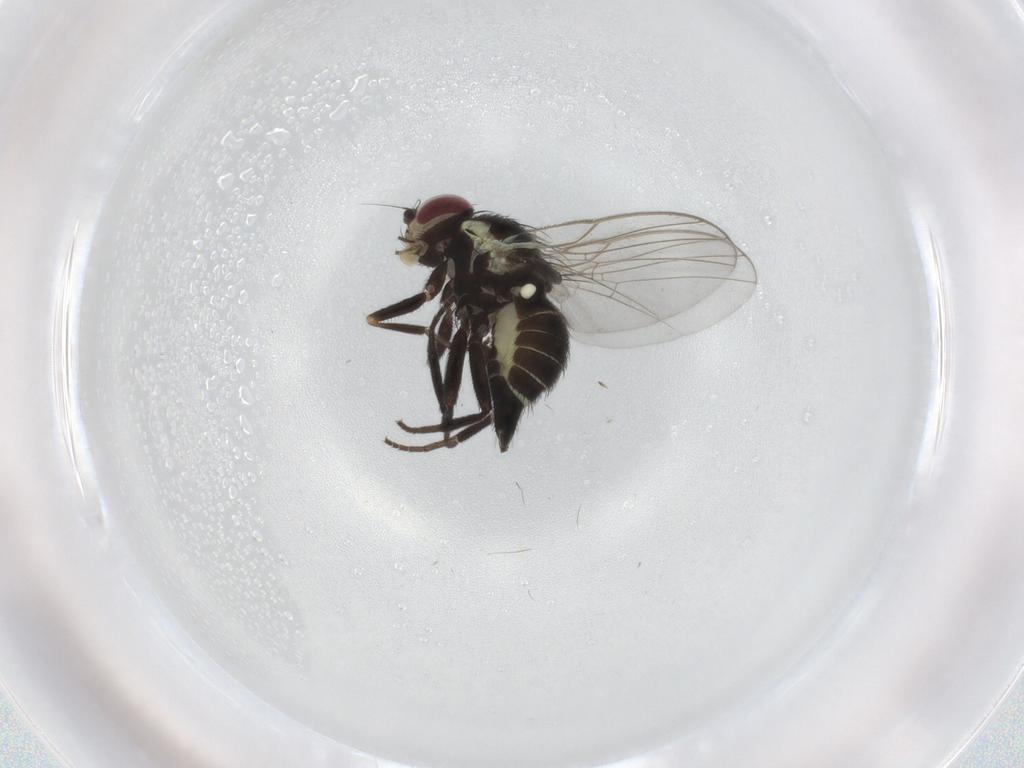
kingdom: Animalia
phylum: Arthropoda
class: Insecta
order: Diptera
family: Agromyzidae
